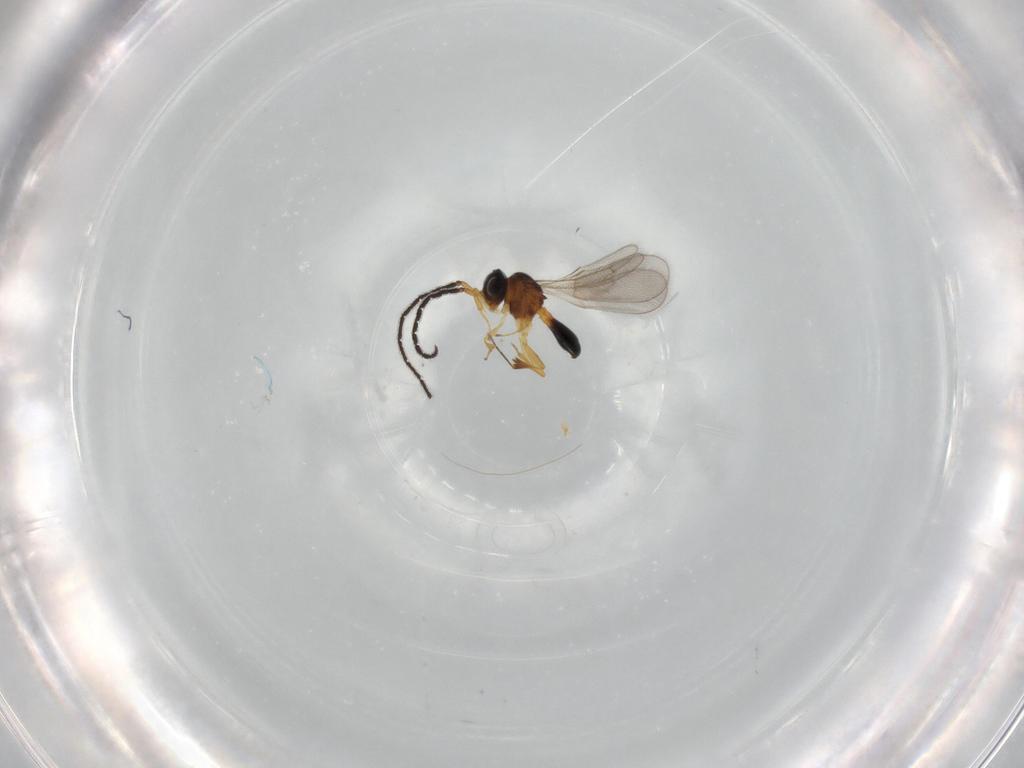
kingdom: Animalia
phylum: Arthropoda
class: Insecta
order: Hymenoptera
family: Scelionidae
